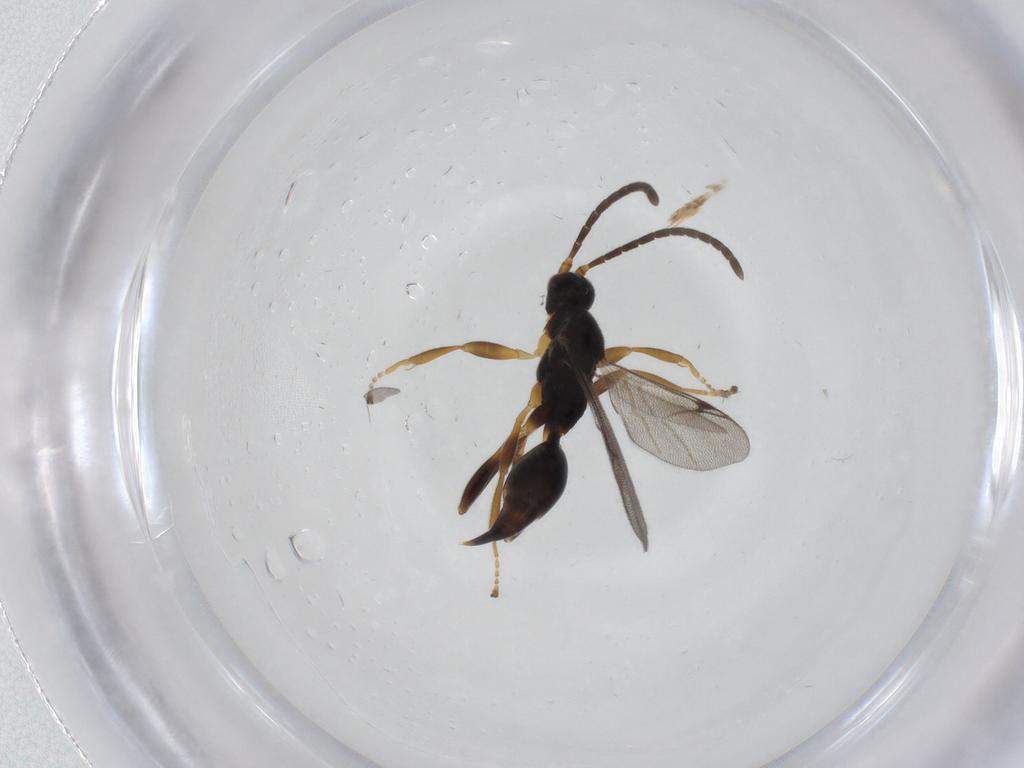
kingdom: Animalia
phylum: Arthropoda
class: Insecta
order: Hymenoptera
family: Proctotrupidae
